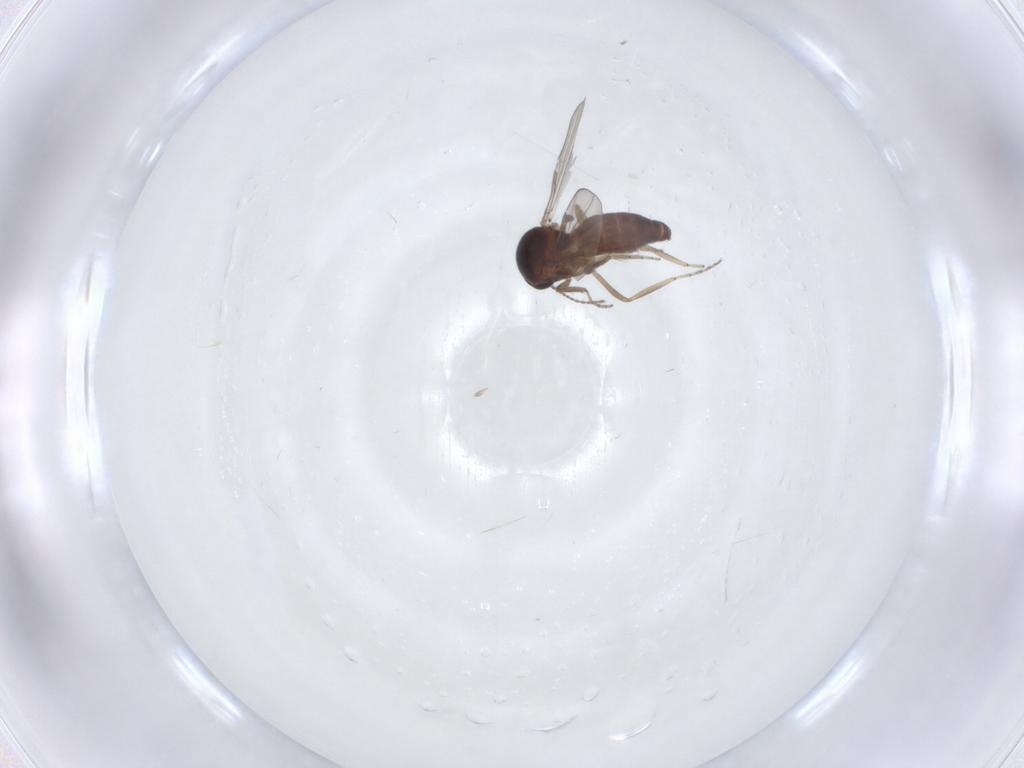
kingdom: Animalia
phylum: Arthropoda
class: Insecta
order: Diptera
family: Ceratopogonidae
